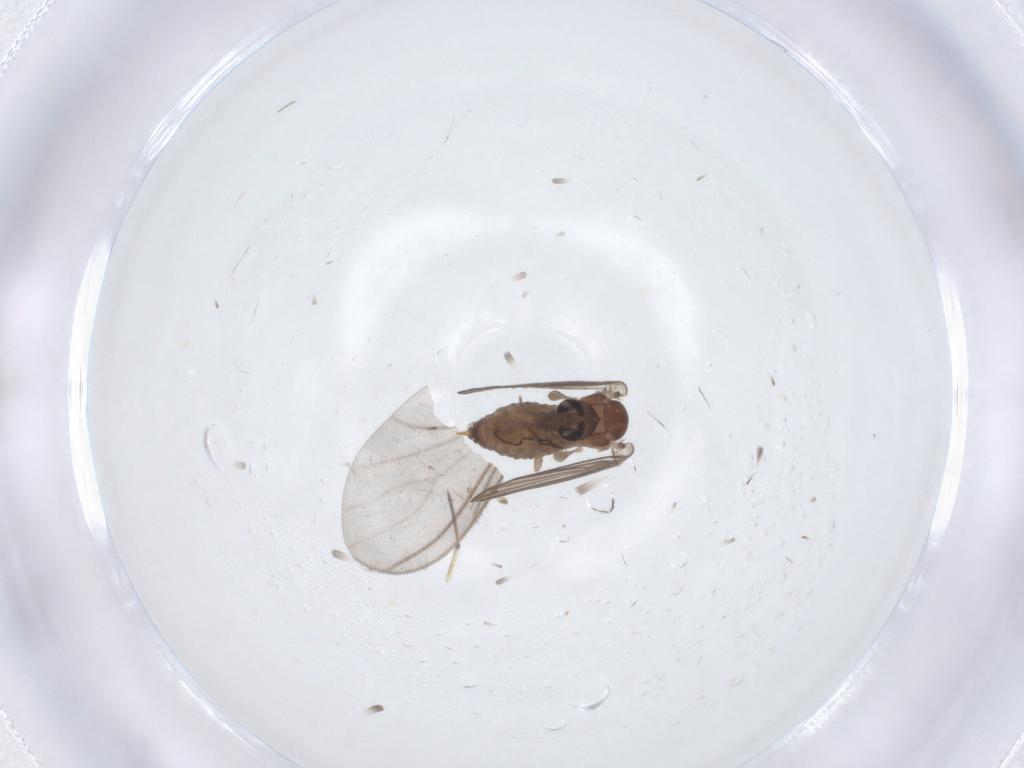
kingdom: Animalia
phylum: Arthropoda
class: Insecta
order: Diptera
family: Psychodidae
